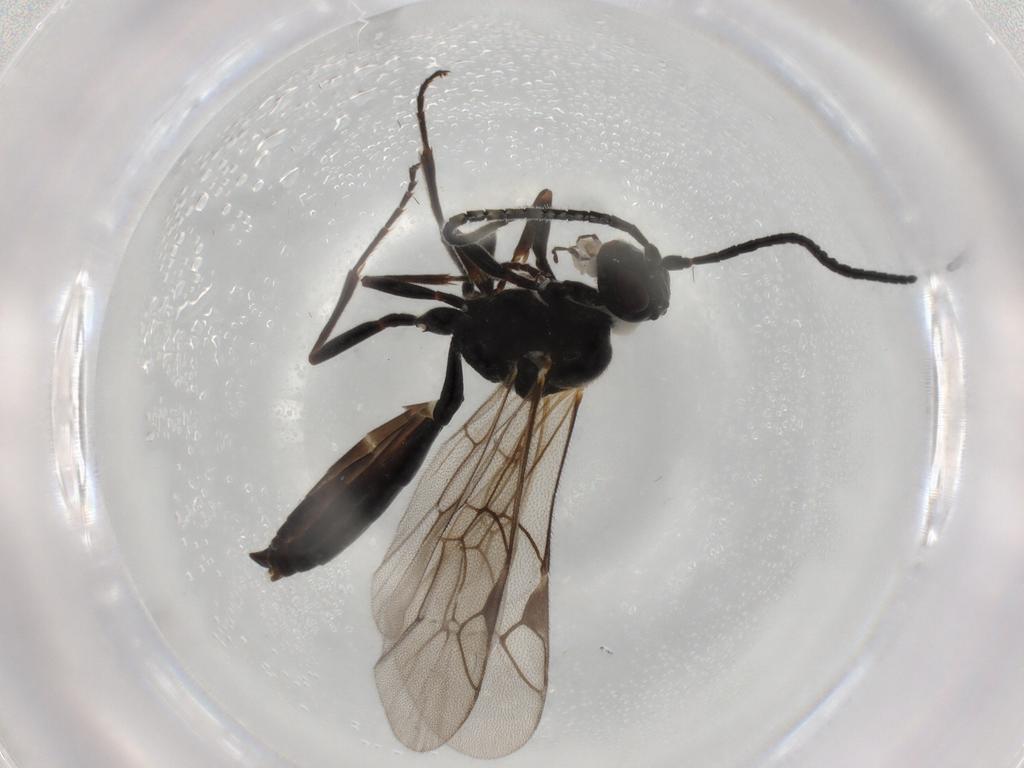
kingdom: Animalia
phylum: Arthropoda
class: Insecta
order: Hymenoptera
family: Ichneumonidae
